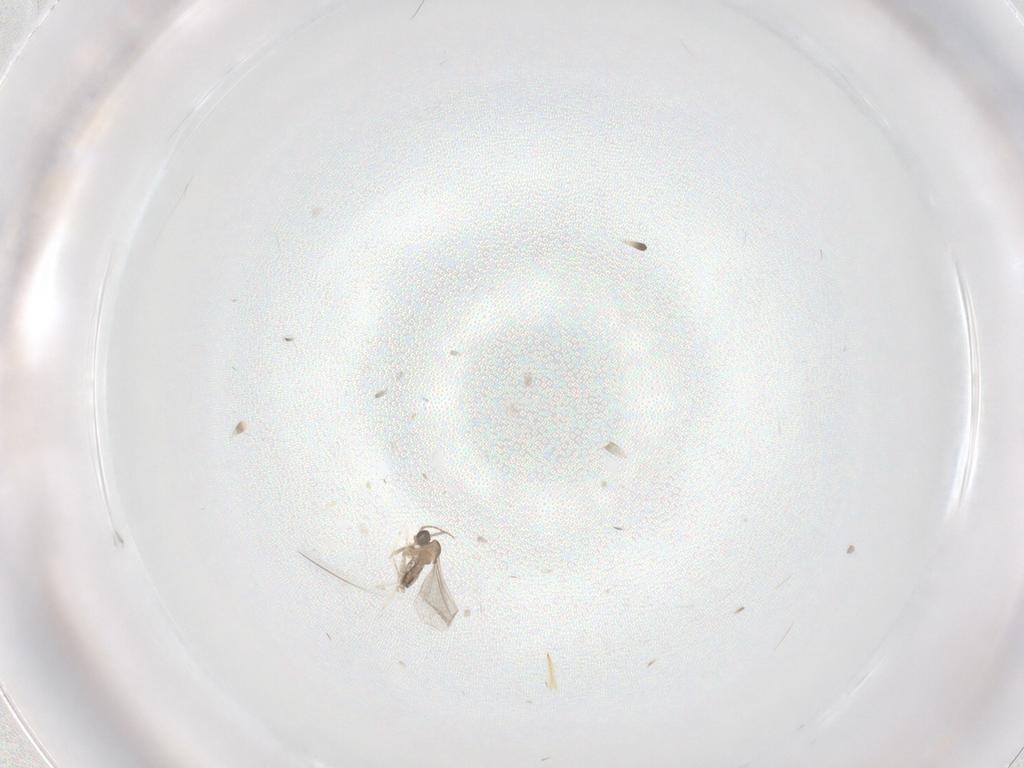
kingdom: Animalia
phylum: Arthropoda
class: Insecta
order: Diptera
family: Cecidomyiidae
